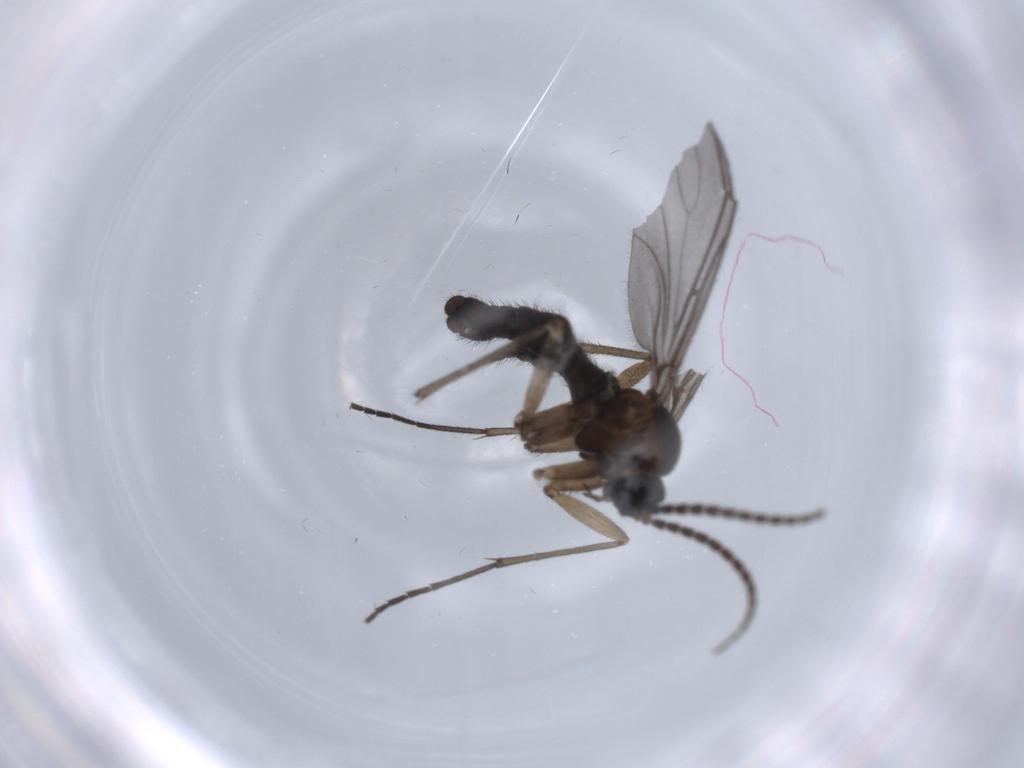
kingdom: Animalia
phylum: Arthropoda
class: Insecta
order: Diptera
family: Sciaridae
